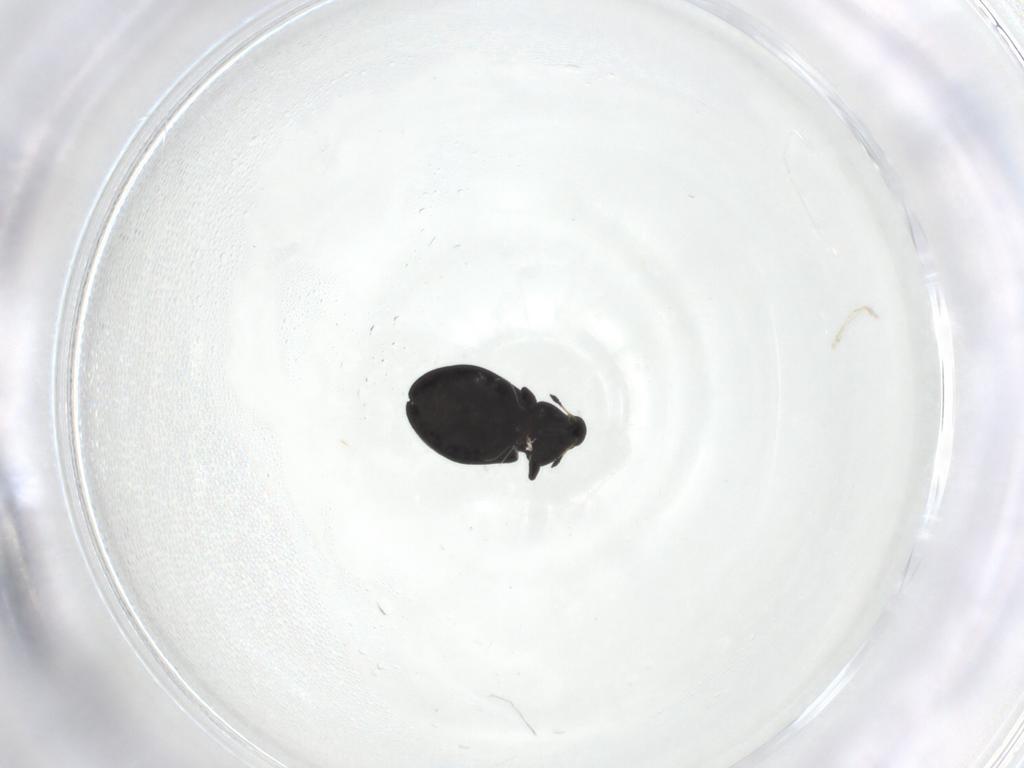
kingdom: Animalia
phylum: Arthropoda
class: Insecta
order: Coleoptera
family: Curculionidae
